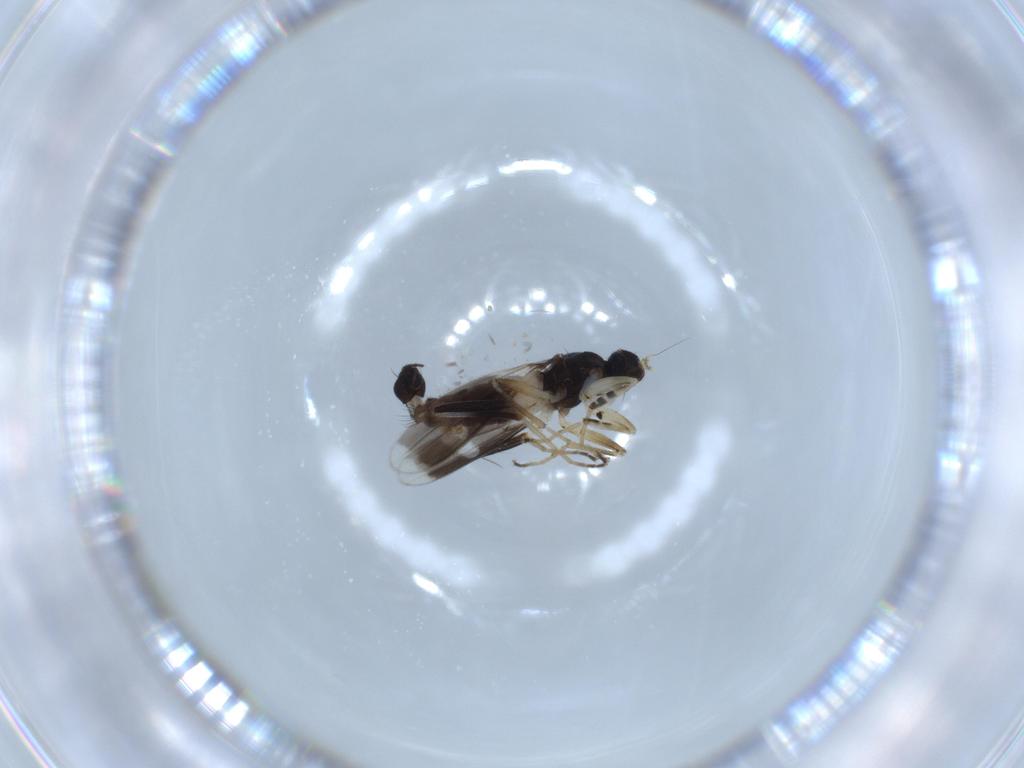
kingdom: Animalia
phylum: Arthropoda
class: Insecta
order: Diptera
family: Hybotidae
